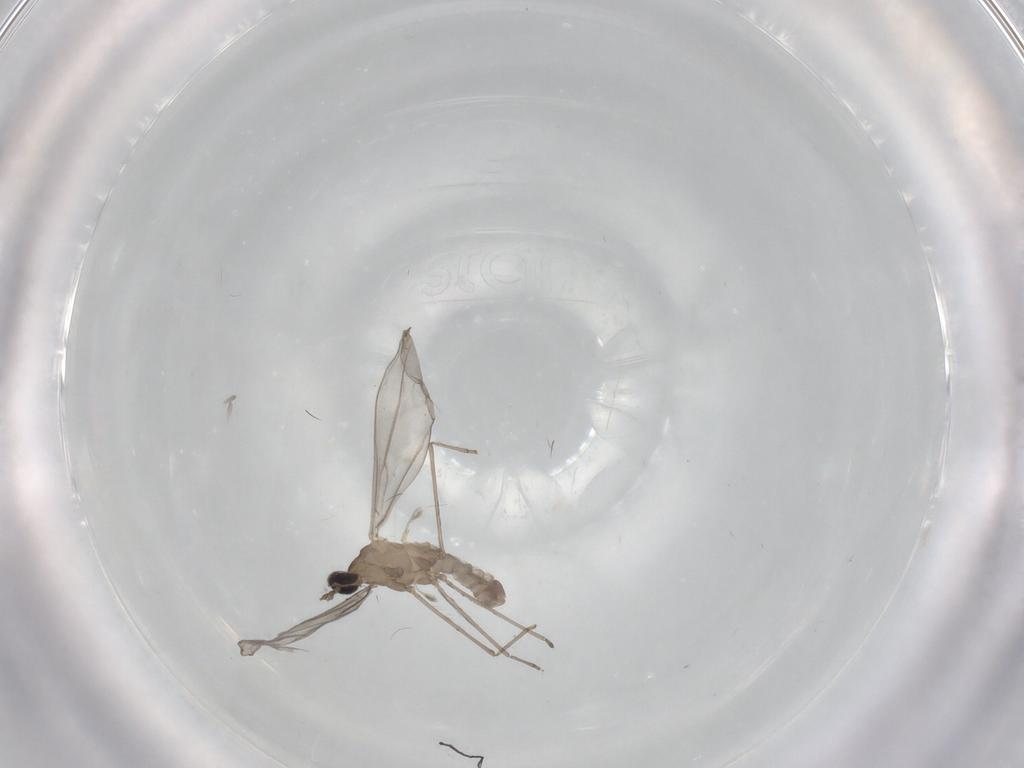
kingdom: Animalia
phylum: Arthropoda
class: Insecta
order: Diptera
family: Cecidomyiidae
